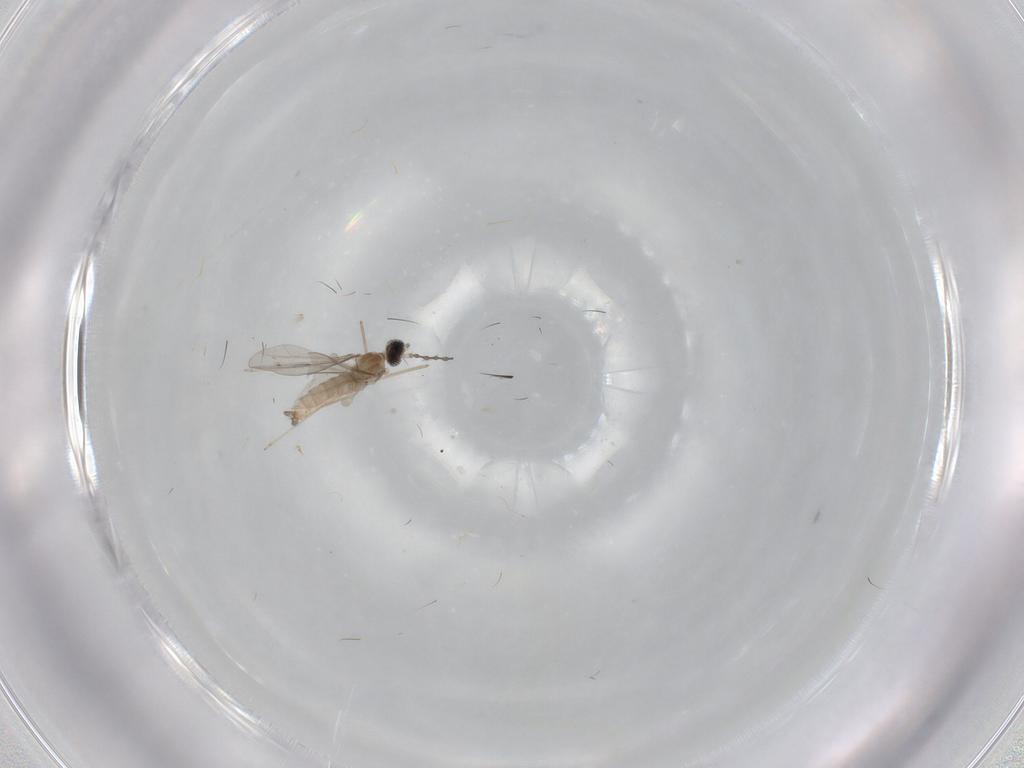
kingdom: Animalia
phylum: Arthropoda
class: Insecta
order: Diptera
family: Cecidomyiidae
